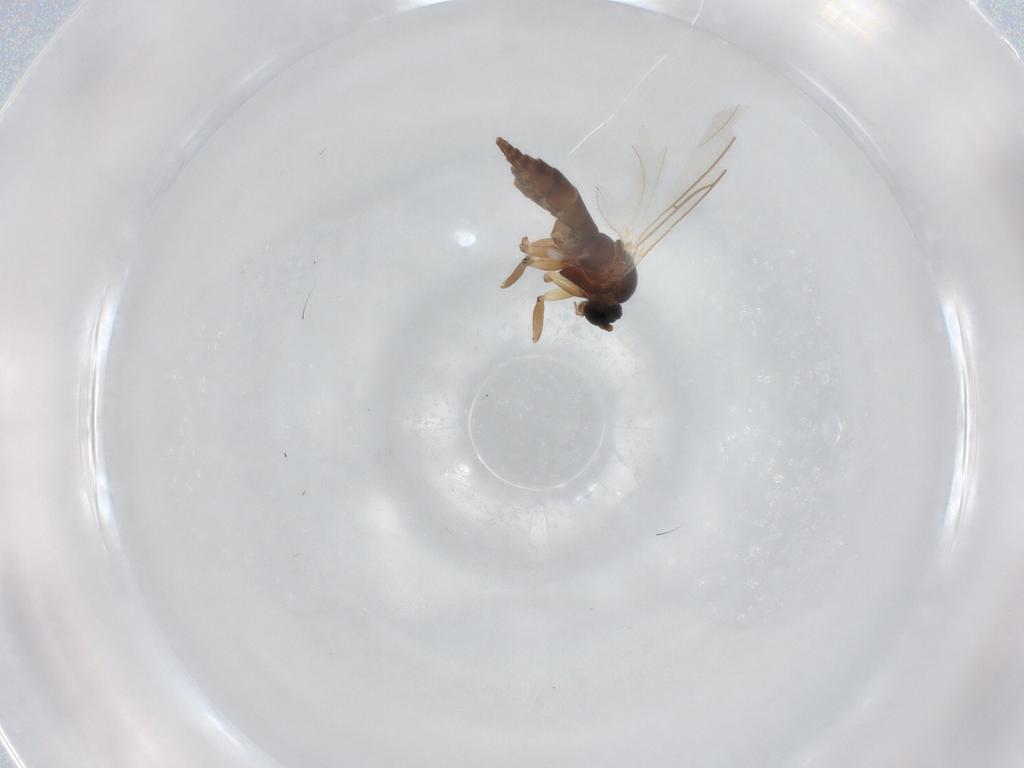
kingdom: Animalia
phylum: Arthropoda
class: Insecta
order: Diptera
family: Sciaridae
